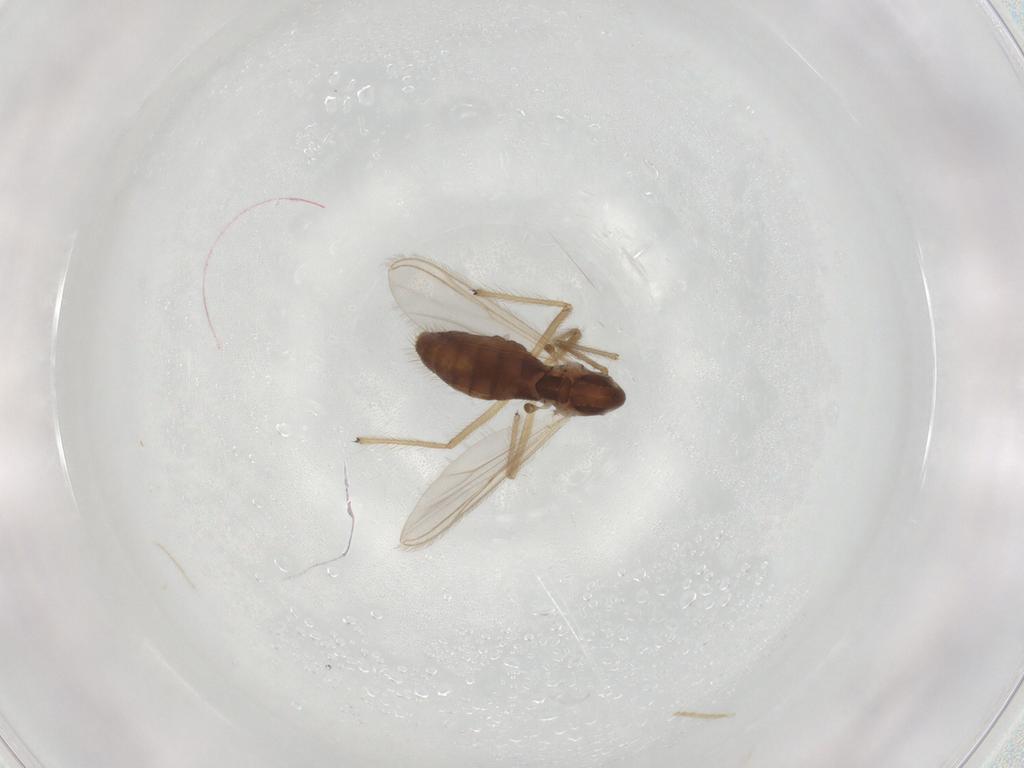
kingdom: Animalia
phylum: Arthropoda
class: Insecta
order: Diptera
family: Chironomidae
